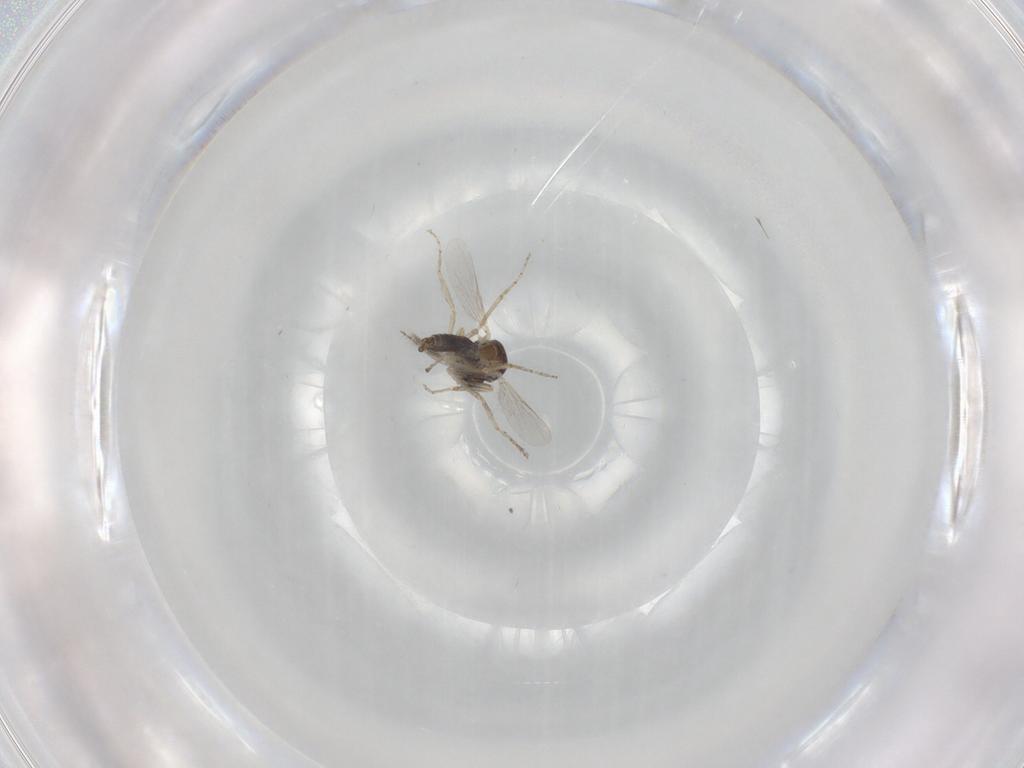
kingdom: Animalia
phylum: Arthropoda
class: Insecta
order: Diptera
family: Ceratopogonidae
